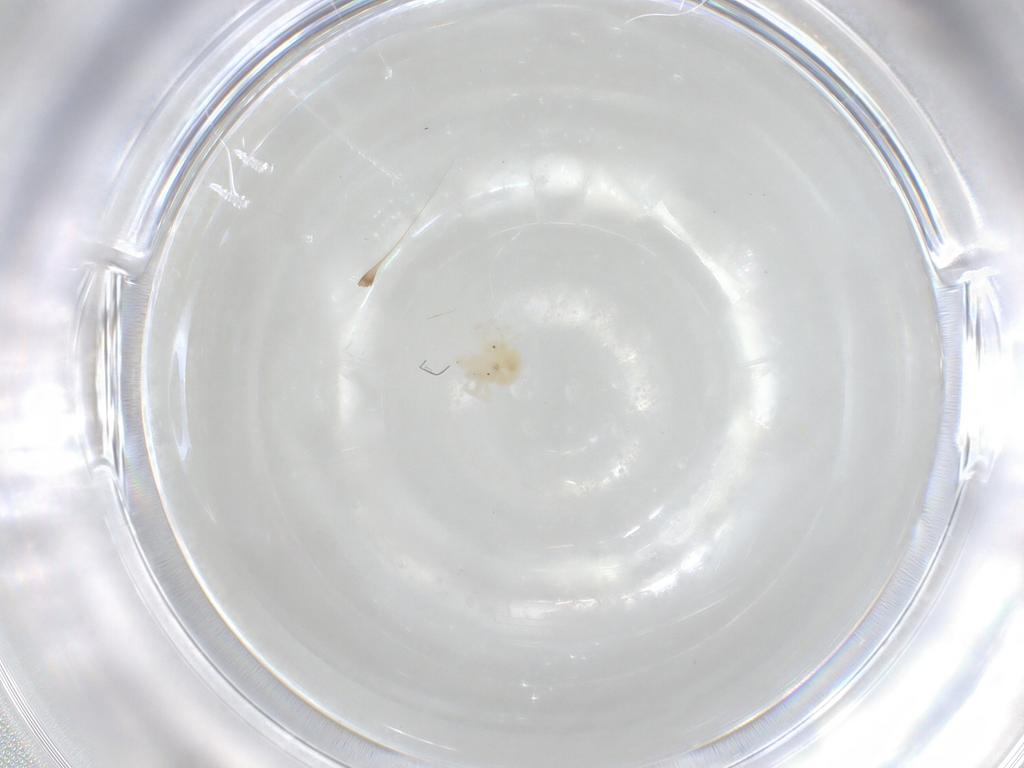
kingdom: Animalia
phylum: Arthropoda
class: Arachnida
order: Trombidiformes
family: Anystidae
